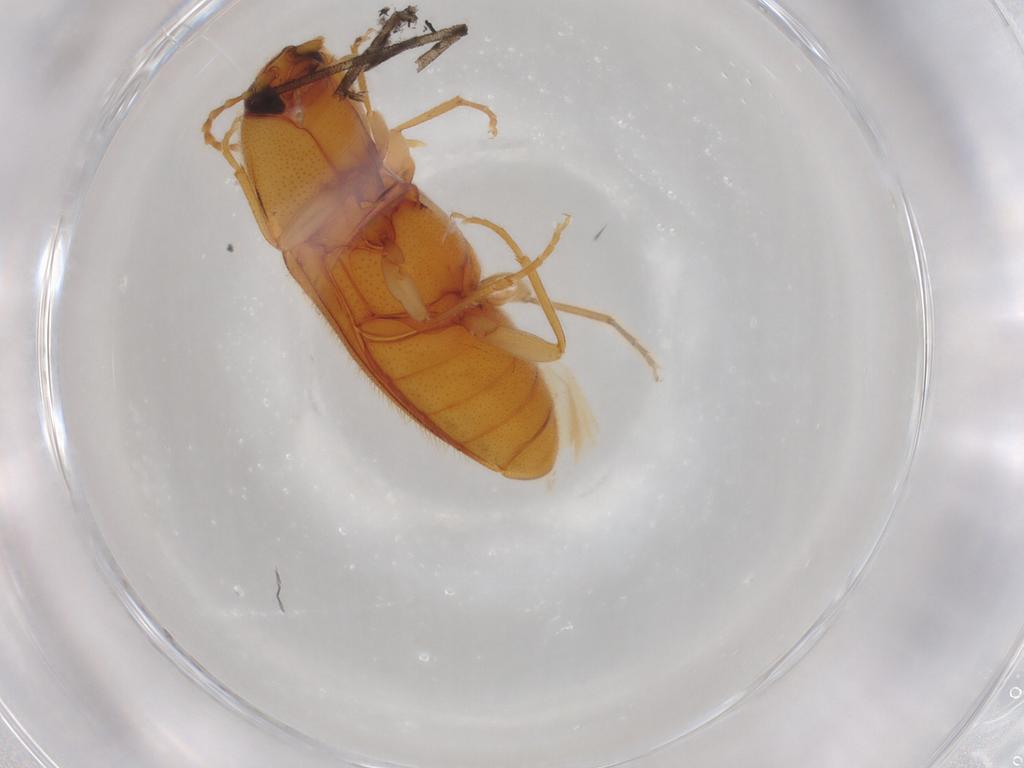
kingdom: Animalia
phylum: Arthropoda
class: Insecta
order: Coleoptera
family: Elateridae
